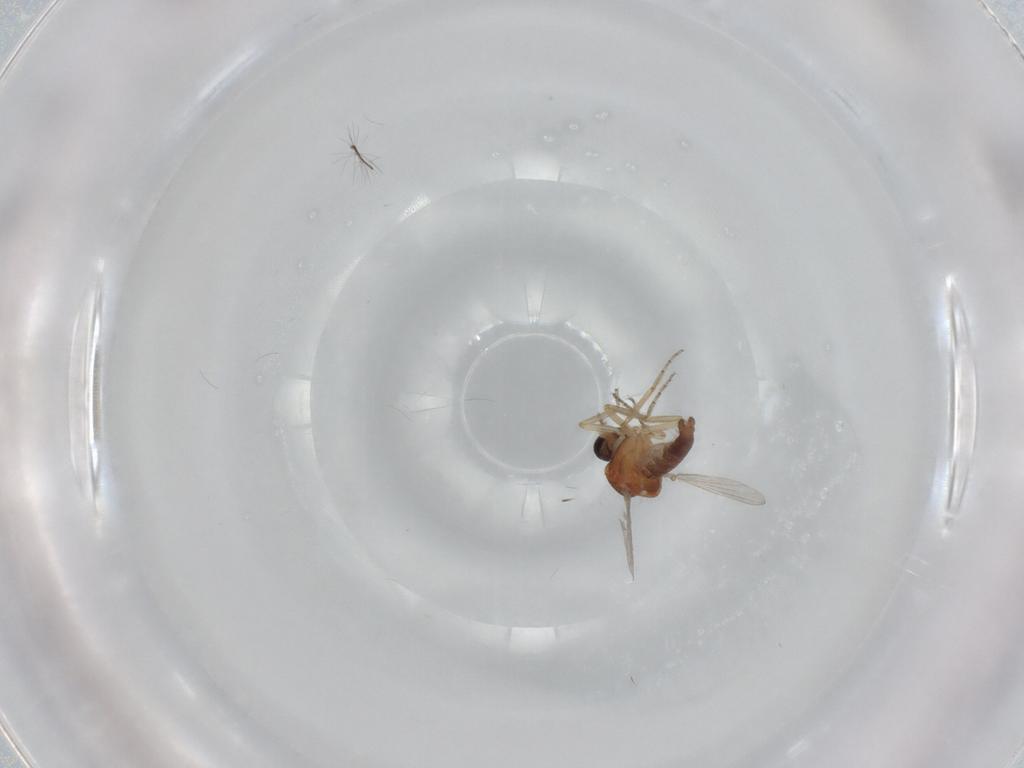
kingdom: Animalia
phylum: Arthropoda
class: Insecta
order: Diptera
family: Ceratopogonidae
